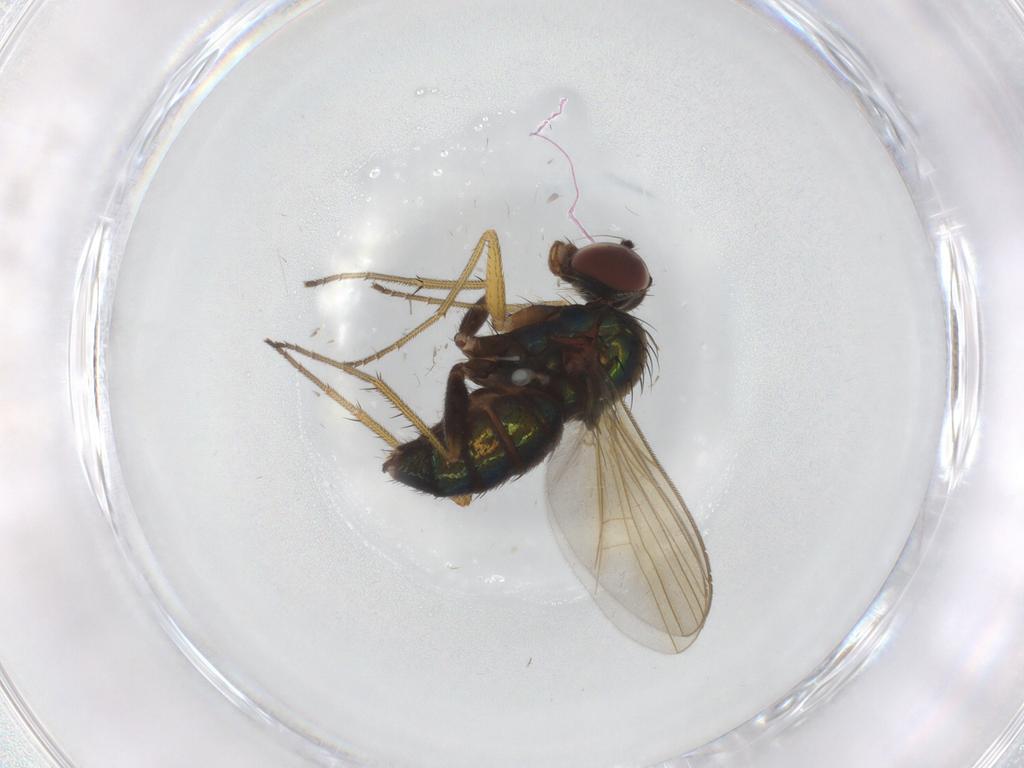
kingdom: Animalia
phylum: Arthropoda
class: Insecta
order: Diptera
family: Dolichopodidae
